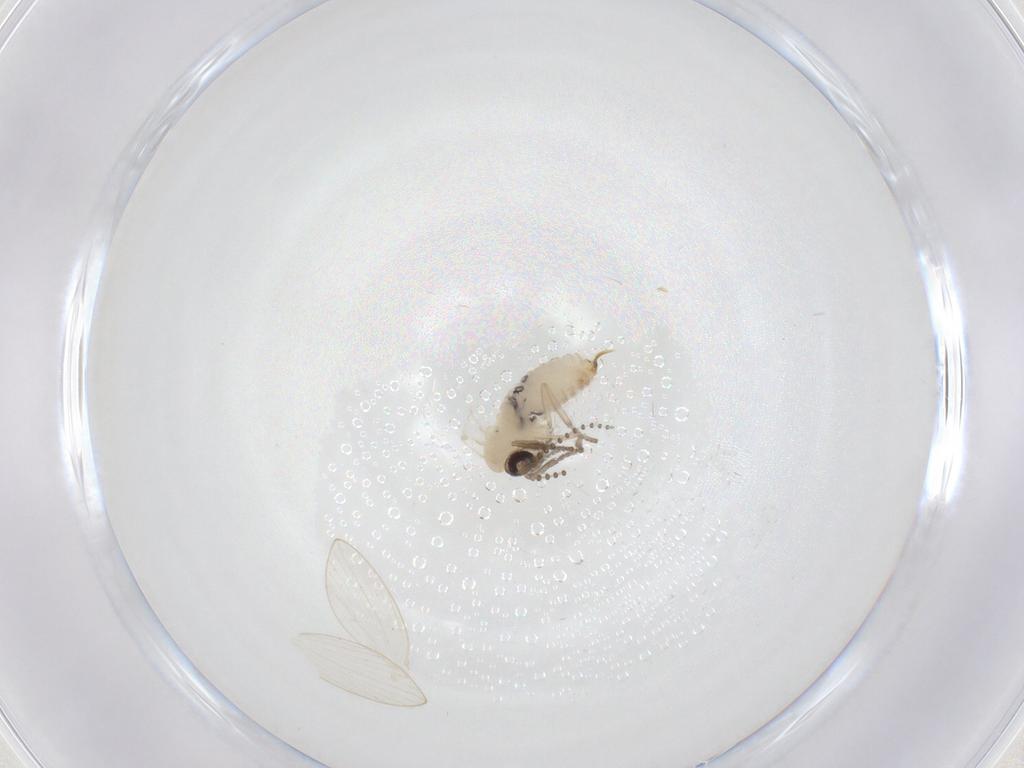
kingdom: Animalia
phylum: Arthropoda
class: Insecta
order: Diptera
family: Psychodidae
